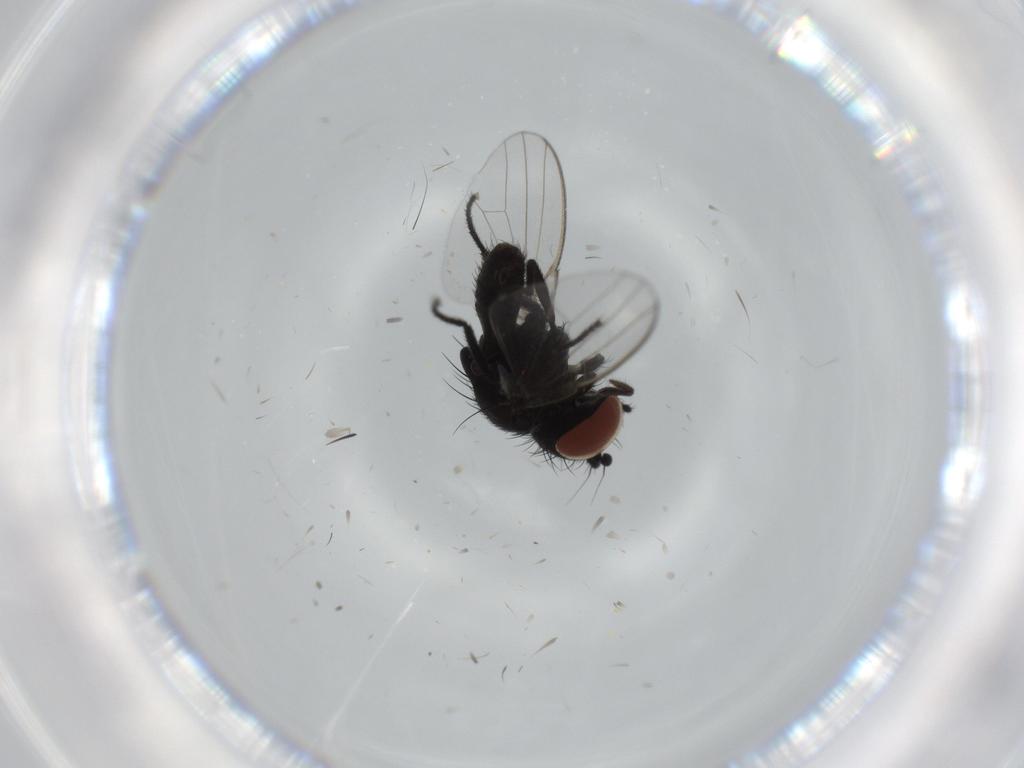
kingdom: Animalia
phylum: Arthropoda
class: Insecta
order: Diptera
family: Milichiidae
